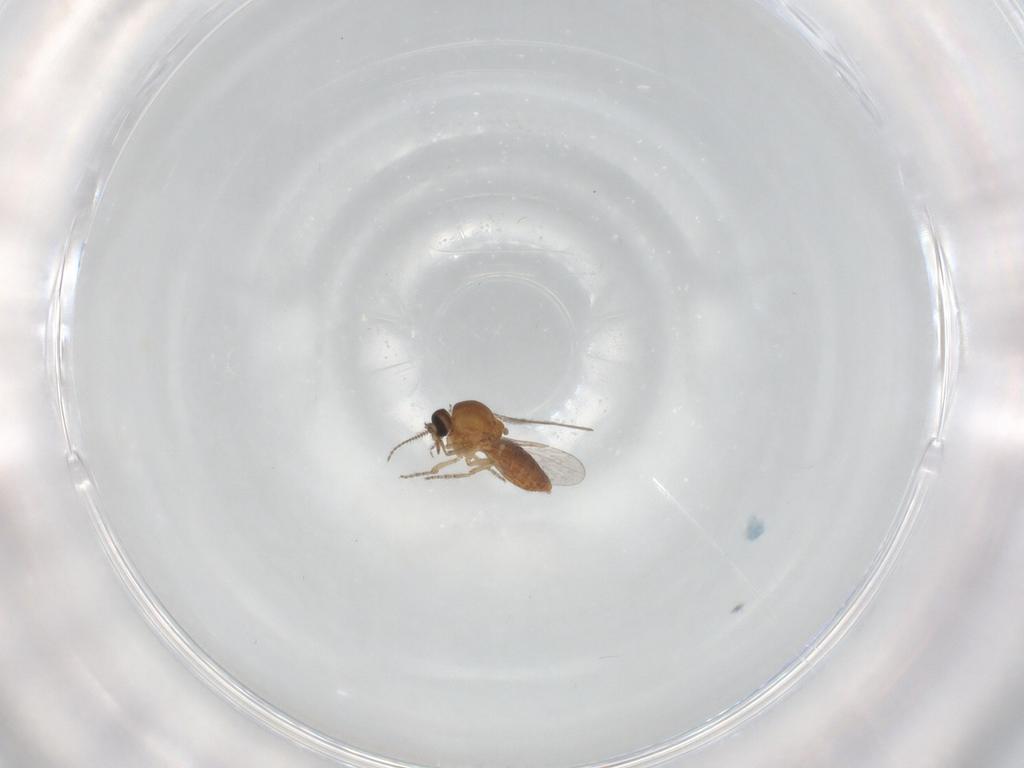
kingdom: Animalia
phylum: Arthropoda
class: Insecta
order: Diptera
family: Ceratopogonidae
